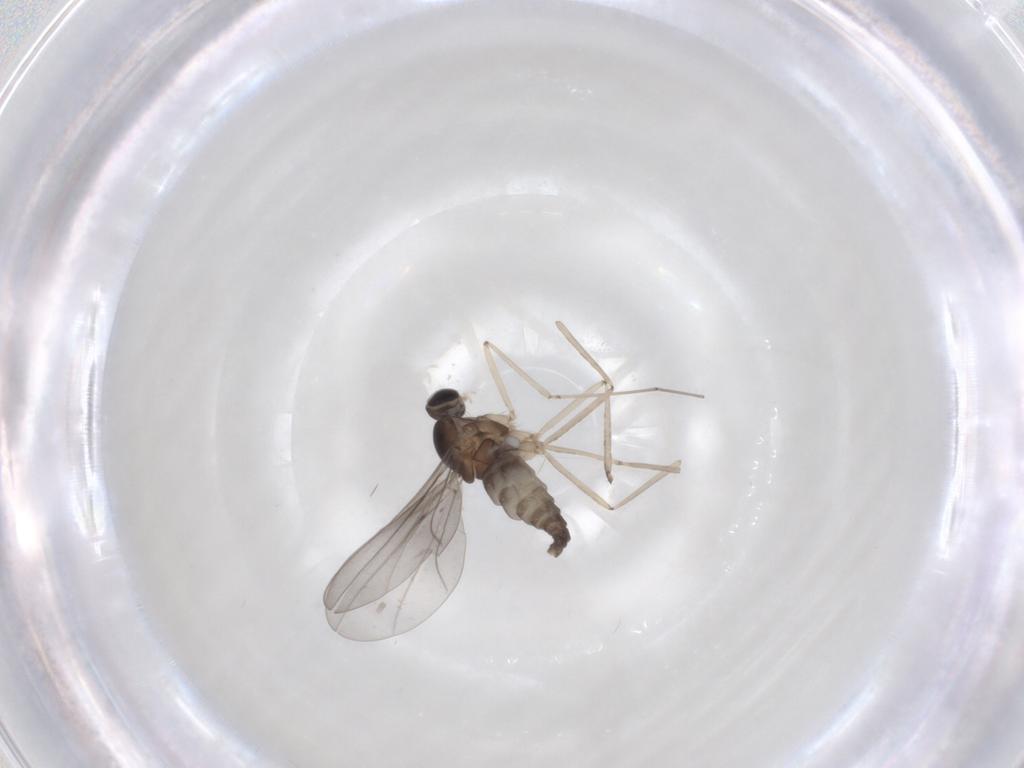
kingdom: Animalia
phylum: Arthropoda
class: Insecta
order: Diptera
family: Cecidomyiidae
